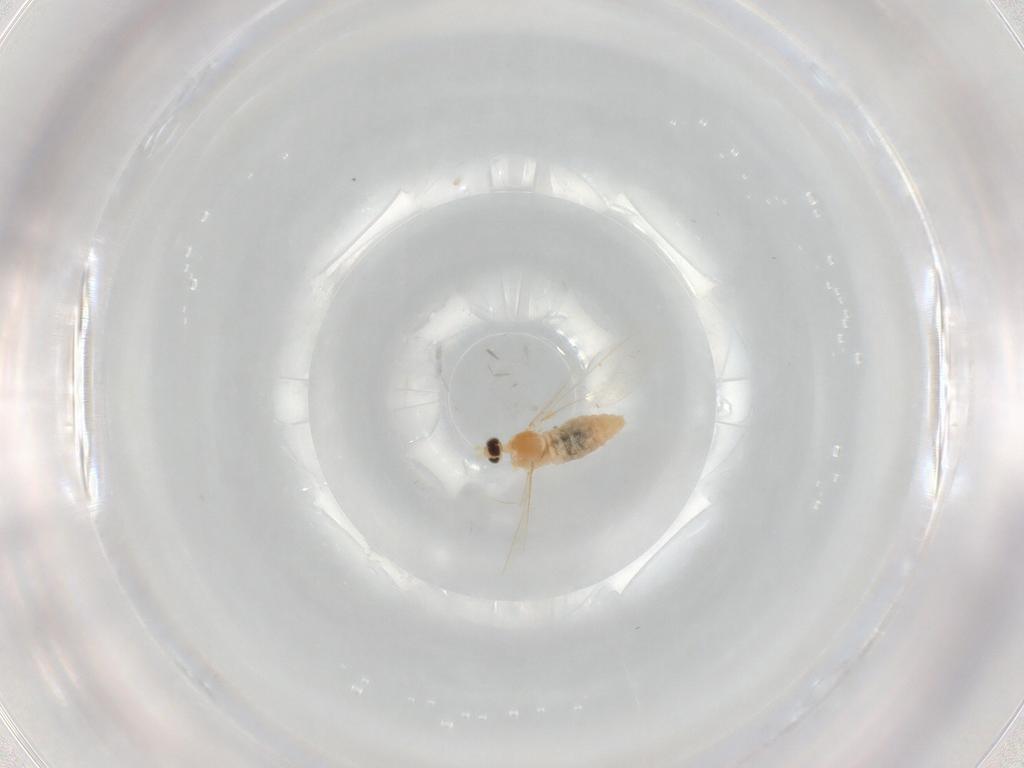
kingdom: Animalia
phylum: Arthropoda
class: Insecta
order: Diptera
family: Cecidomyiidae
